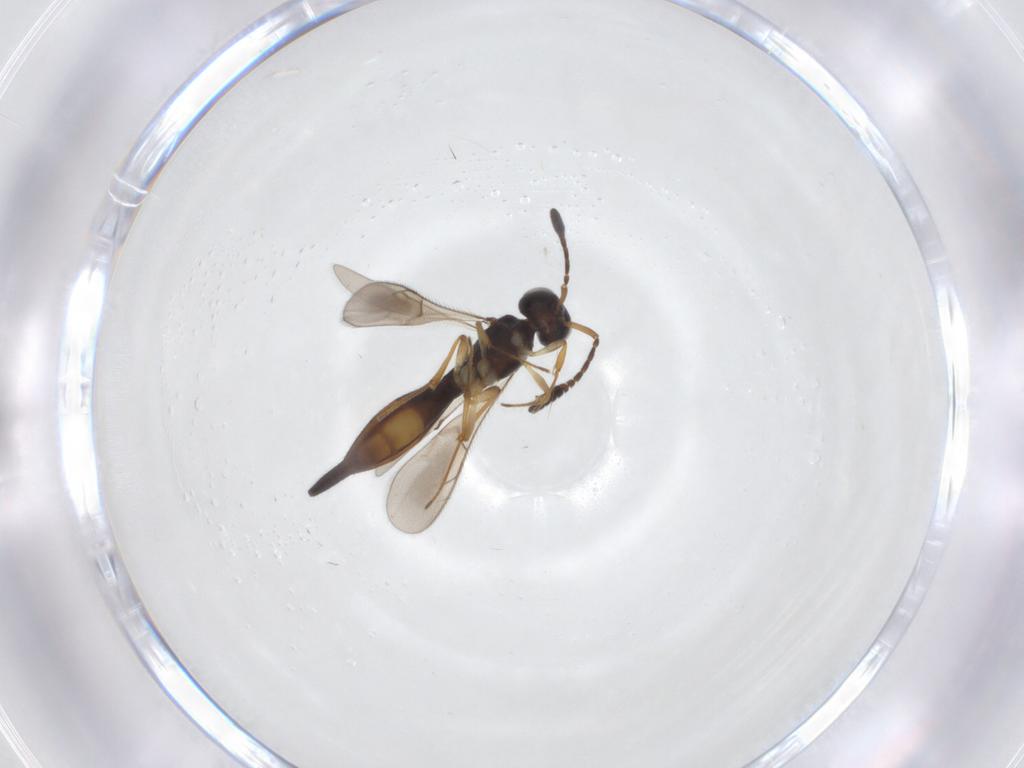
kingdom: Animalia
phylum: Arthropoda
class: Insecta
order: Hymenoptera
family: Scelionidae
